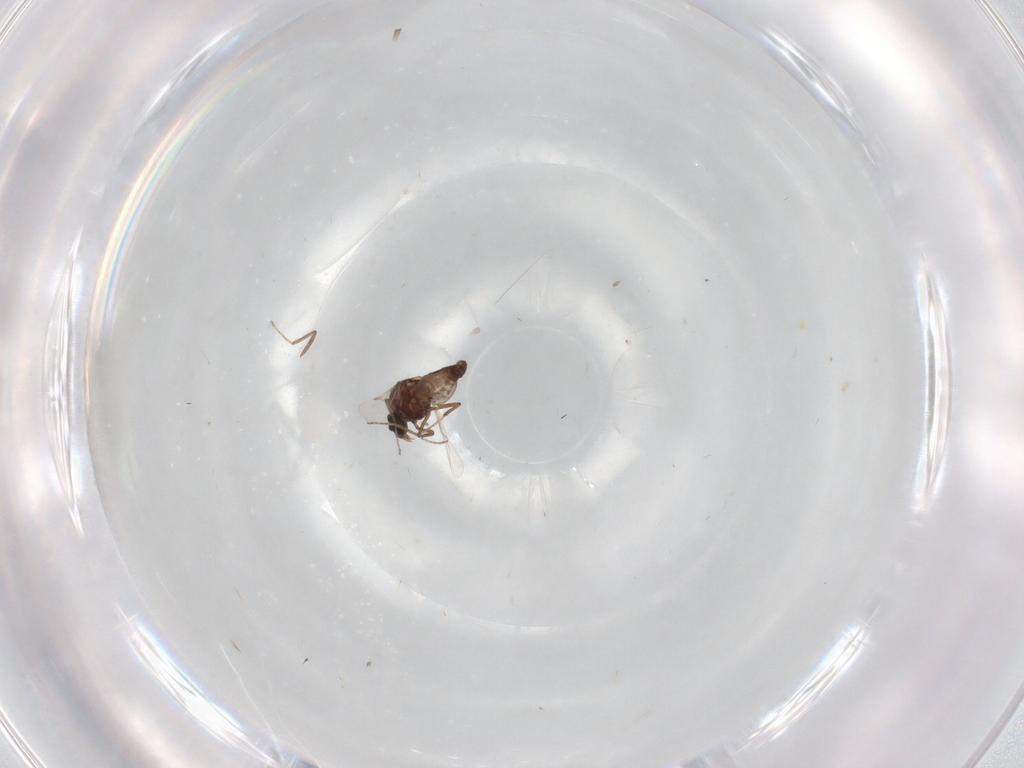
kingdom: Animalia
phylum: Arthropoda
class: Insecta
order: Diptera
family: Ceratopogonidae
